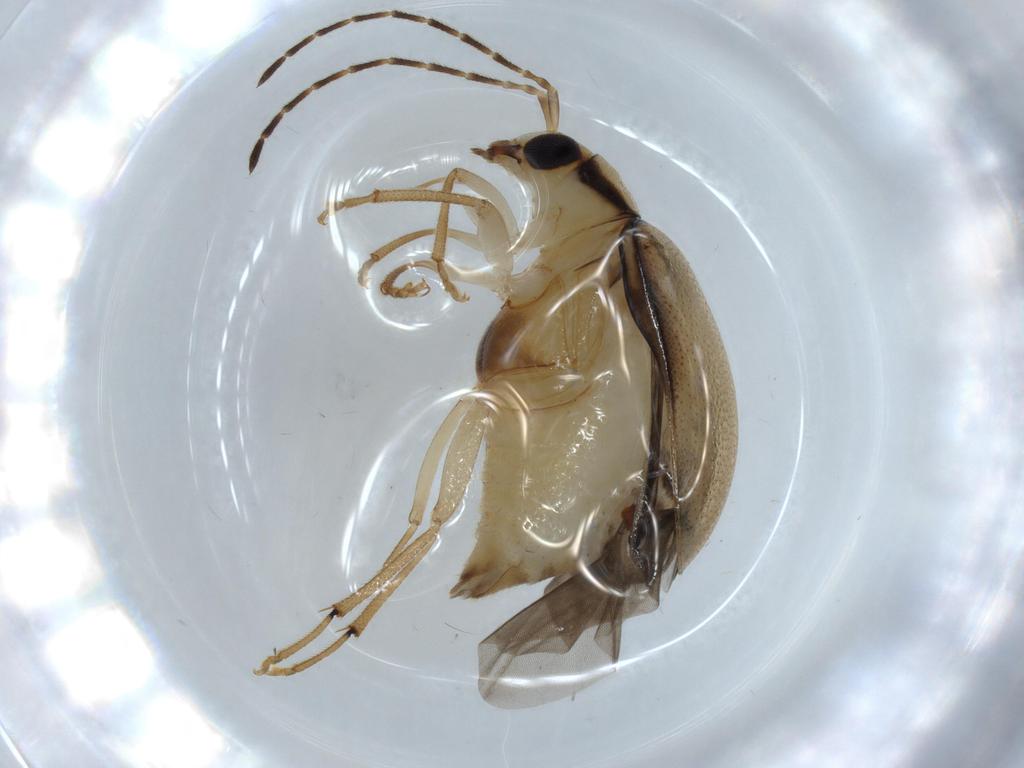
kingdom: Animalia
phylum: Arthropoda
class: Insecta
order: Coleoptera
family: Chrysomelidae
